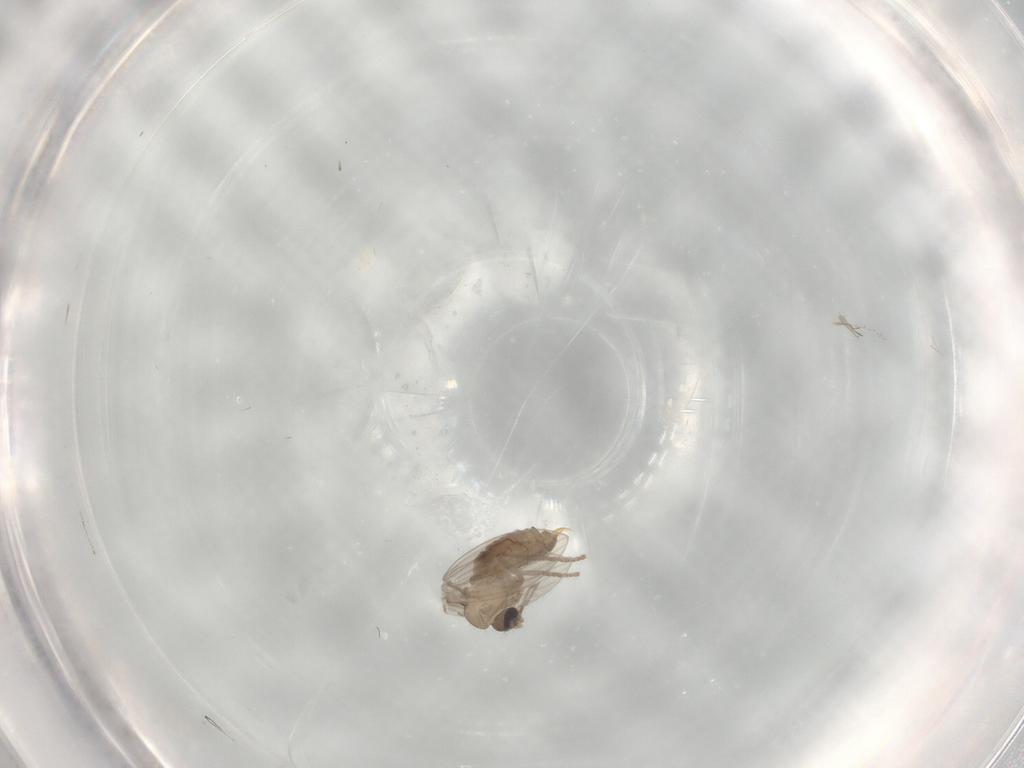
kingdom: Animalia
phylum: Arthropoda
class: Insecta
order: Diptera
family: Psychodidae
